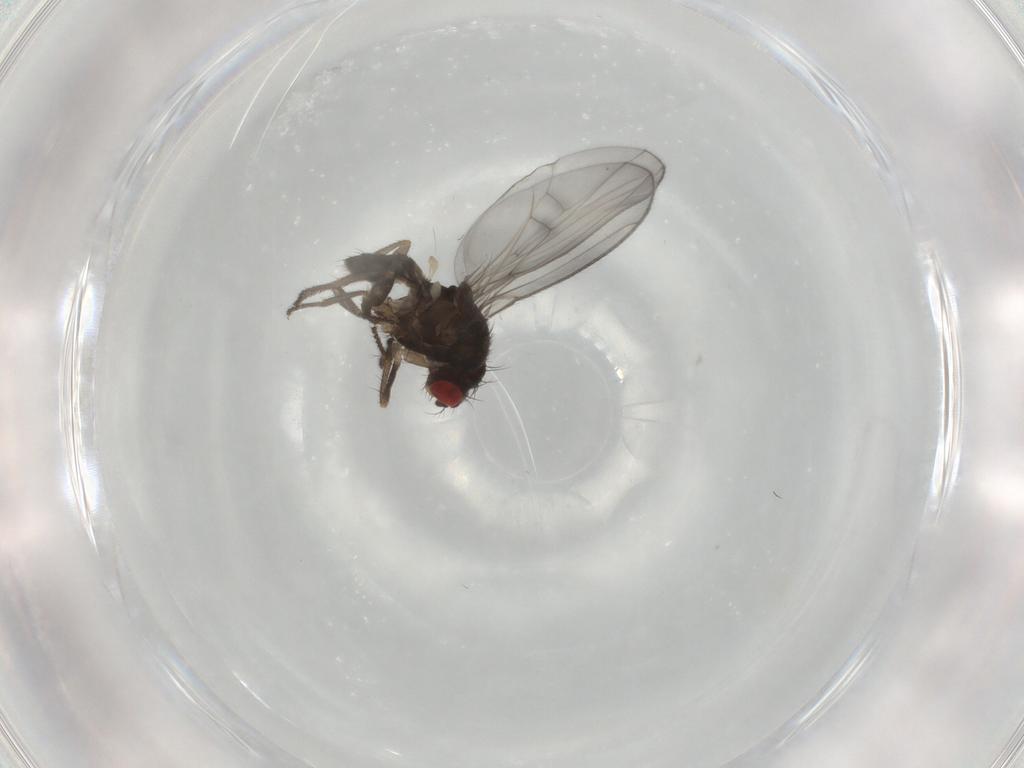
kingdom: Animalia
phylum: Arthropoda
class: Insecta
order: Diptera
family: Drosophilidae
